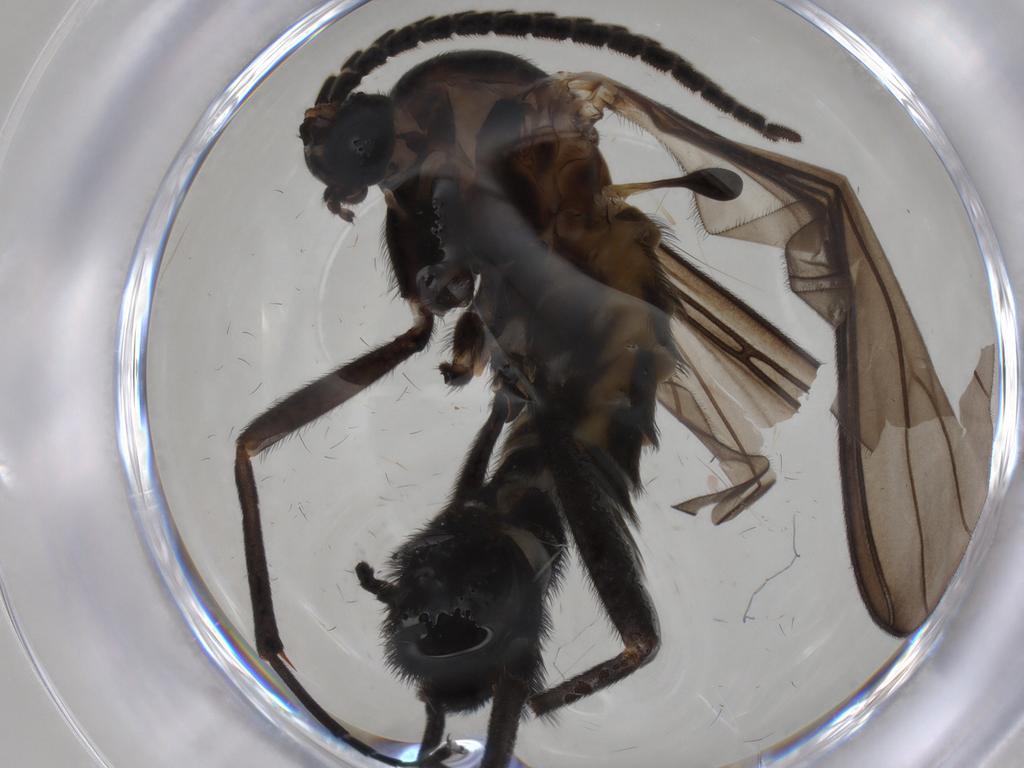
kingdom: Animalia
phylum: Arthropoda
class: Insecta
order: Diptera
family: Sciaridae
